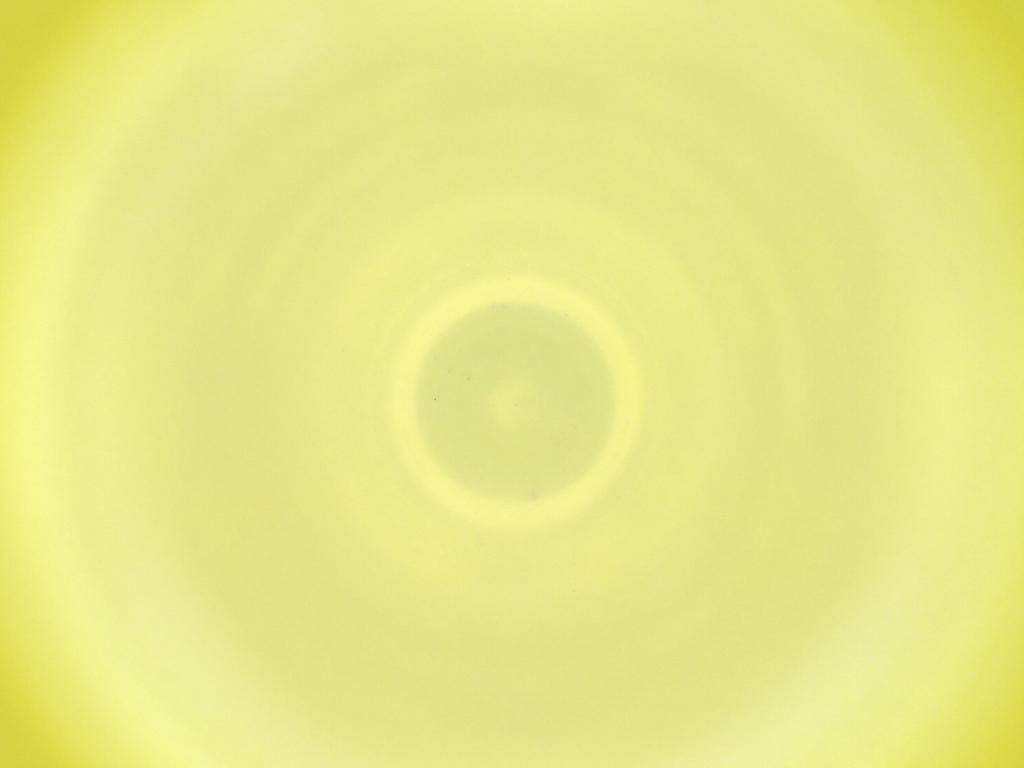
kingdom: Animalia
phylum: Arthropoda
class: Insecta
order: Diptera
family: Cecidomyiidae
